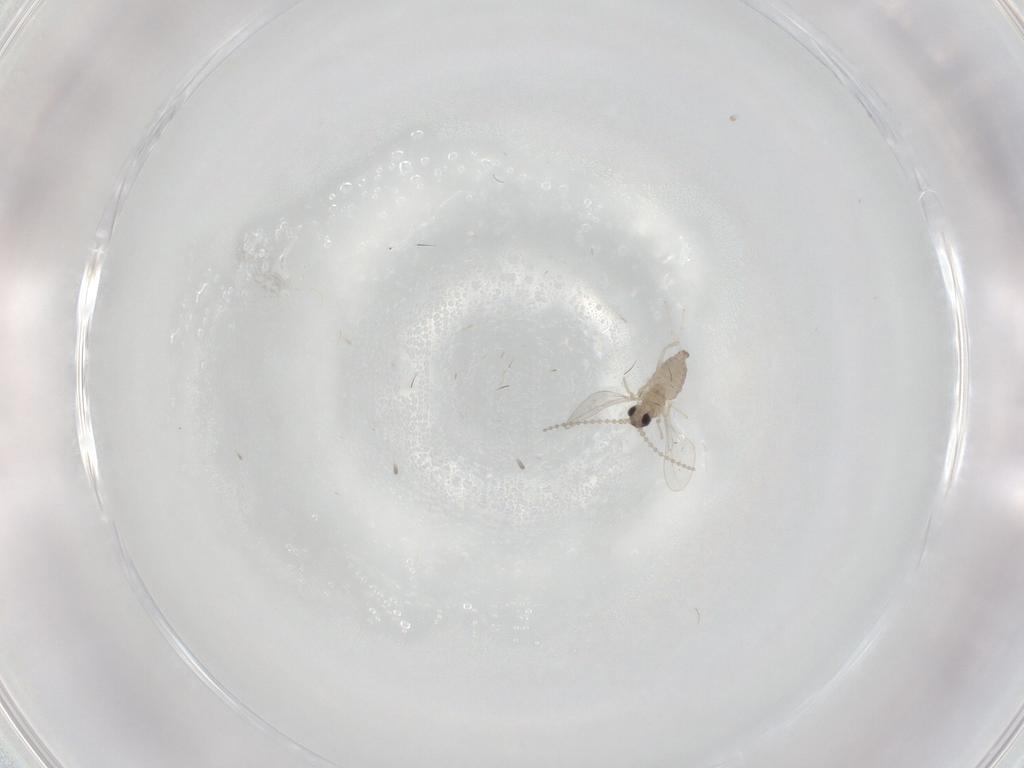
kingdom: Animalia
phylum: Arthropoda
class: Insecta
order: Diptera
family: Cecidomyiidae
